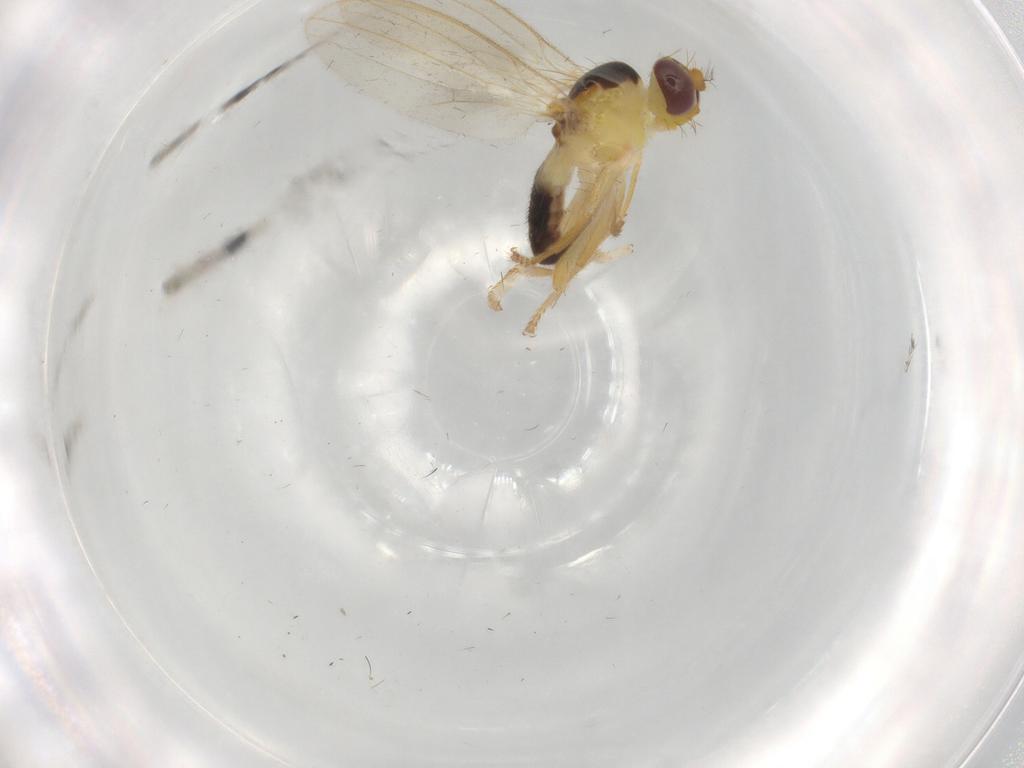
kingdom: Animalia
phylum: Arthropoda
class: Insecta
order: Diptera
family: Periscelididae
